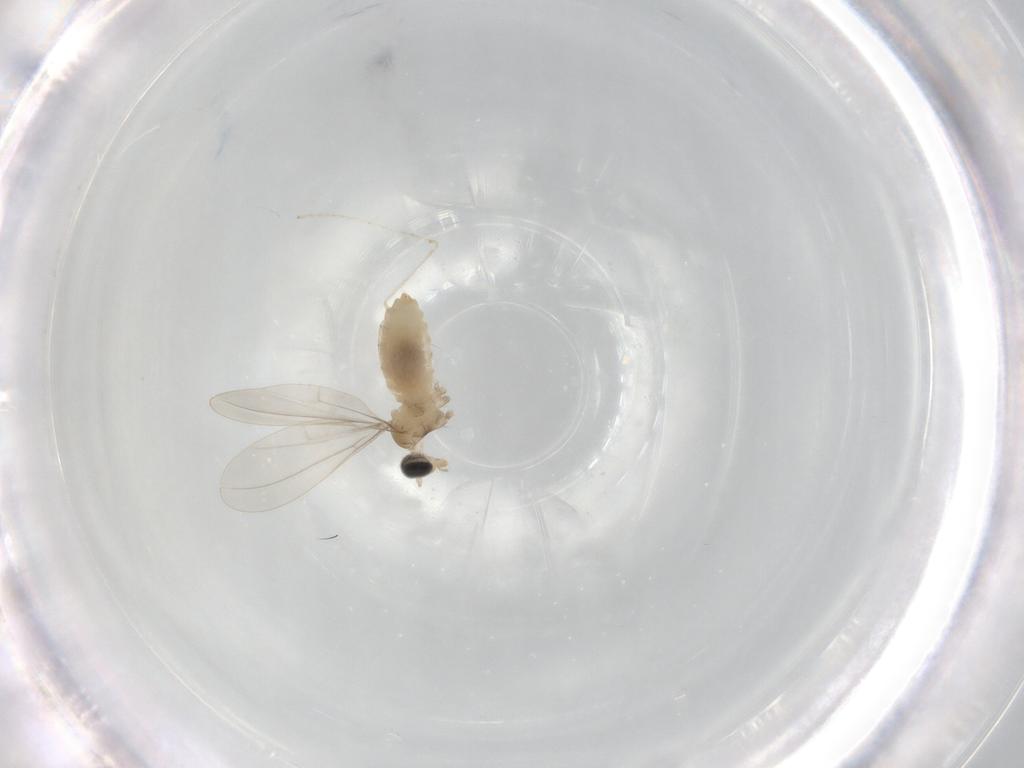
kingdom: Animalia
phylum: Arthropoda
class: Insecta
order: Diptera
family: Cecidomyiidae
